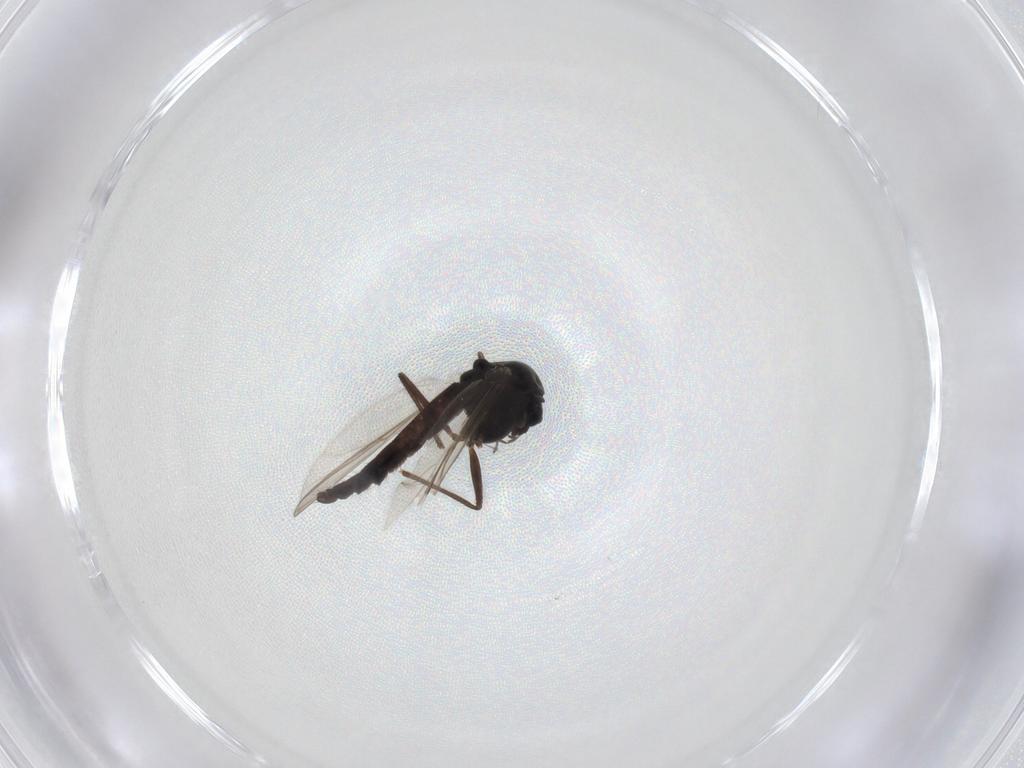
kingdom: Animalia
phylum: Arthropoda
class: Insecta
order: Diptera
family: Chironomidae
